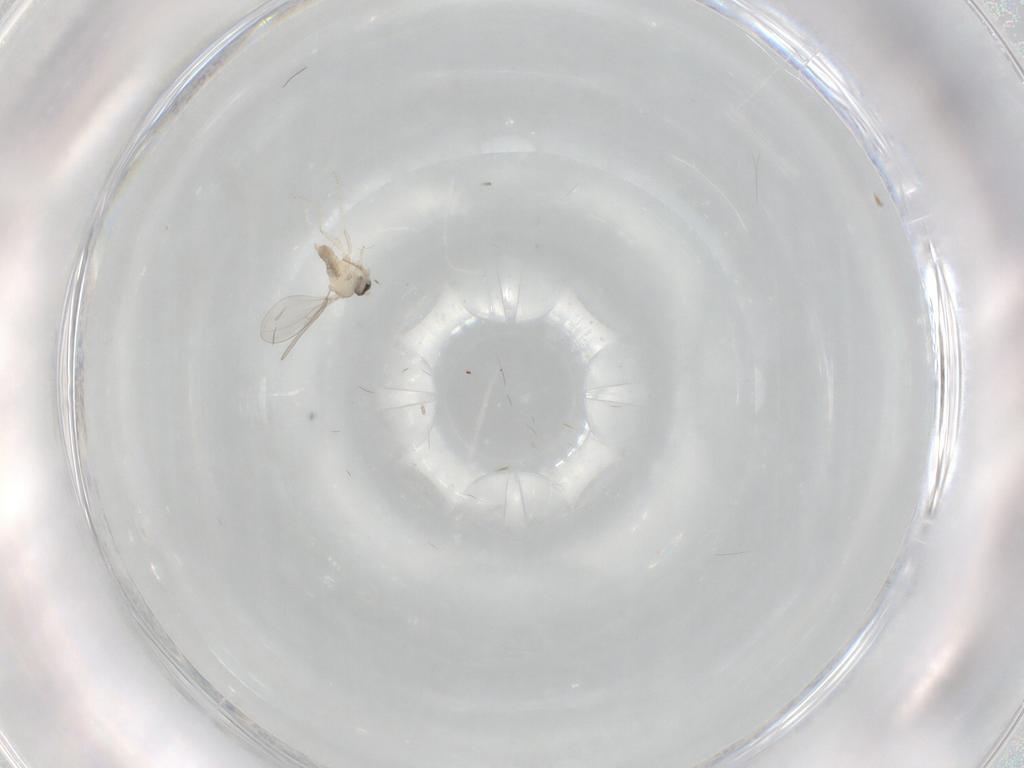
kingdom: Animalia
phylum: Arthropoda
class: Insecta
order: Diptera
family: Cecidomyiidae
